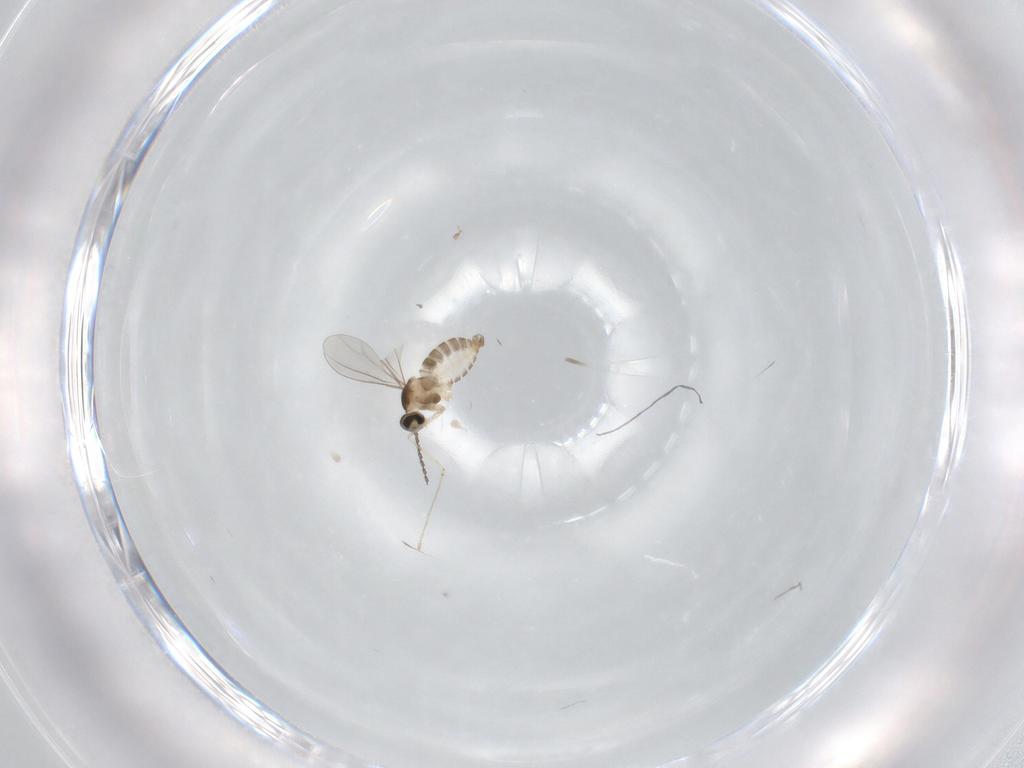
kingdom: Animalia
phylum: Arthropoda
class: Insecta
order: Diptera
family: Cecidomyiidae
